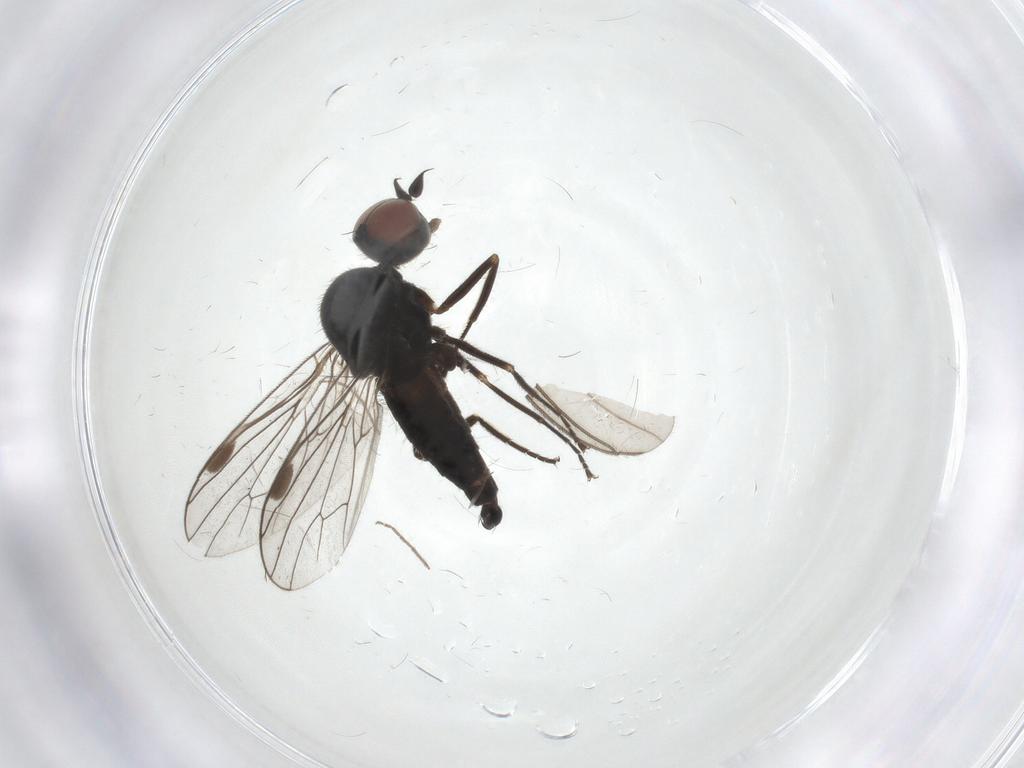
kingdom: Animalia
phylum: Arthropoda
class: Insecta
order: Diptera
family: Muscidae
